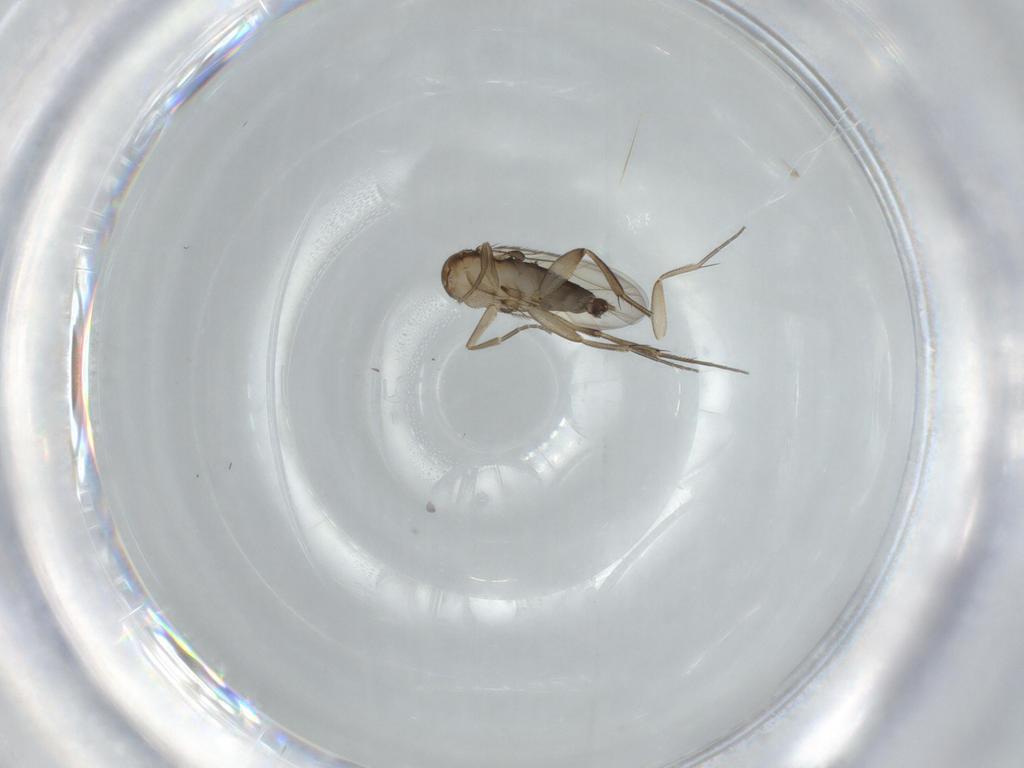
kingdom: Animalia
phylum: Arthropoda
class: Insecta
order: Diptera
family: Phoridae
